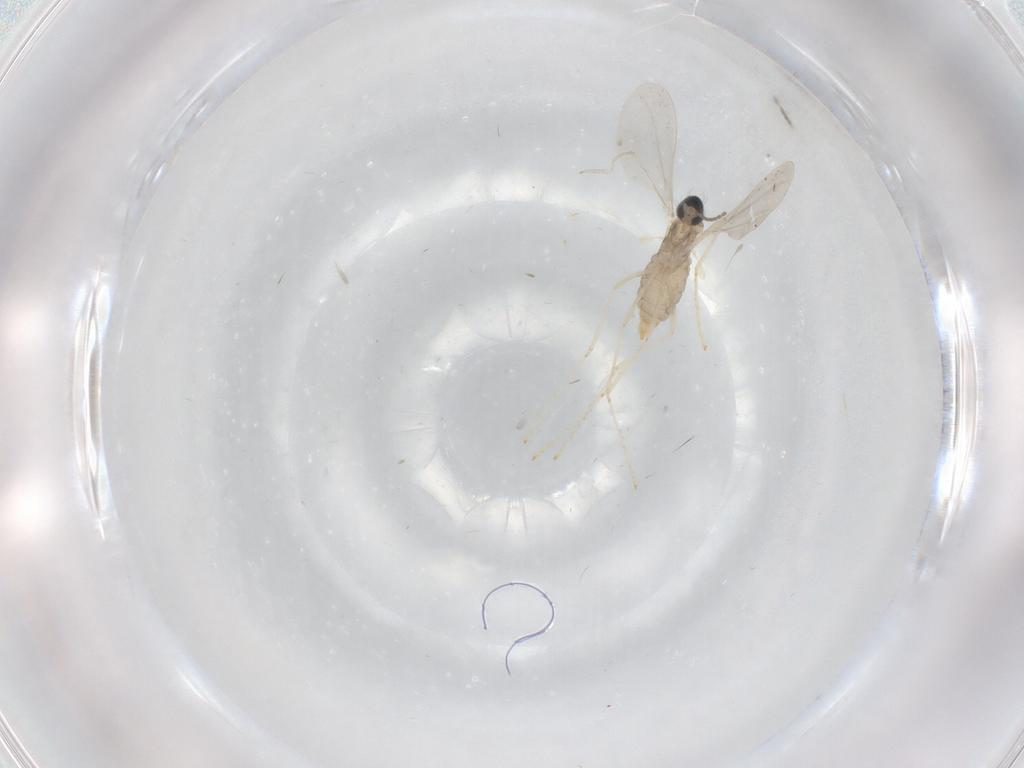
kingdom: Animalia
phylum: Arthropoda
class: Insecta
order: Diptera
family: Cecidomyiidae
